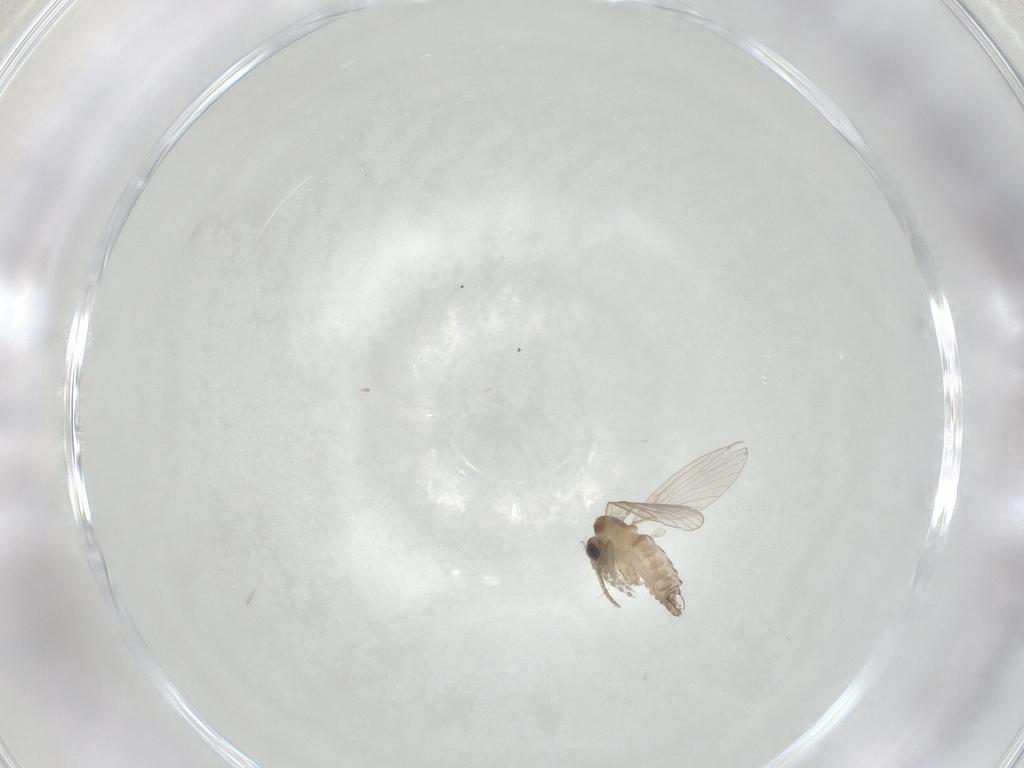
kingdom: Animalia
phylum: Arthropoda
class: Insecta
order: Diptera
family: Psychodidae
